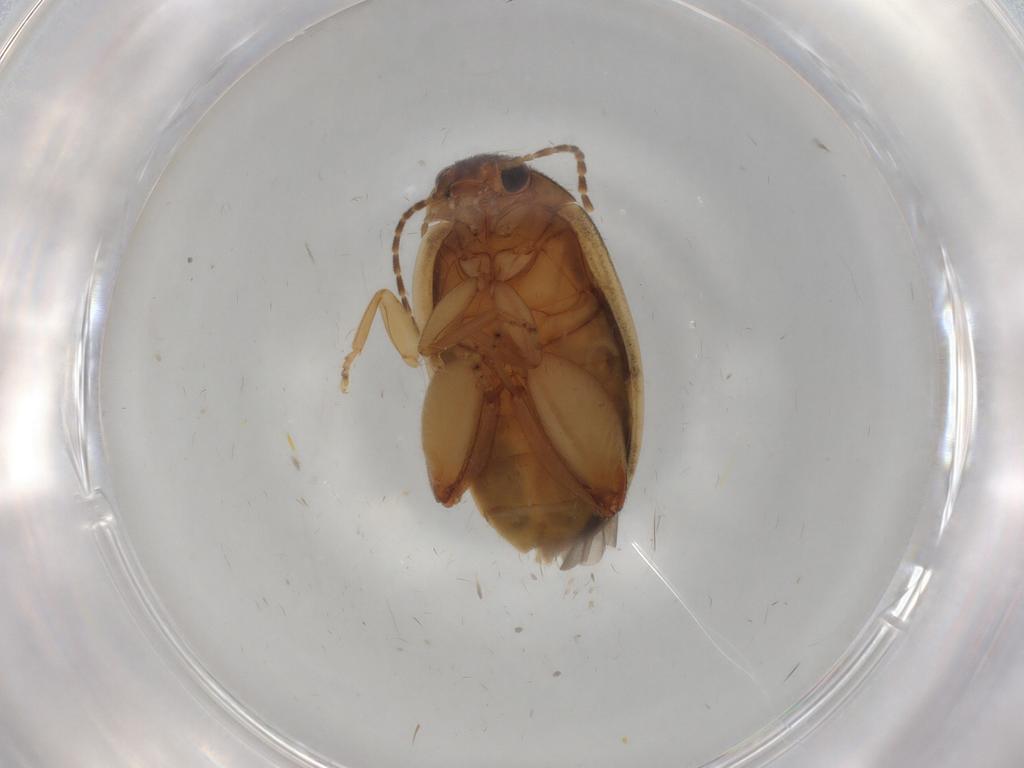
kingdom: Animalia
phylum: Arthropoda
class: Insecta
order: Coleoptera
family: Scirtidae
